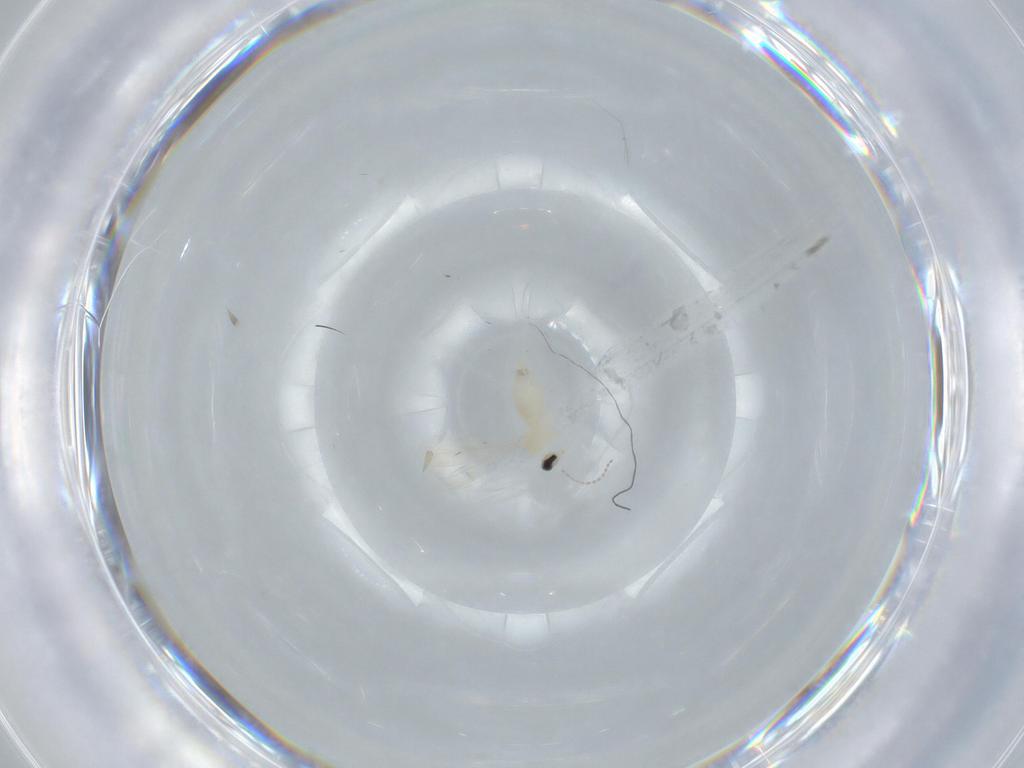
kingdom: Animalia
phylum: Arthropoda
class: Insecta
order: Diptera
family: Cecidomyiidae
